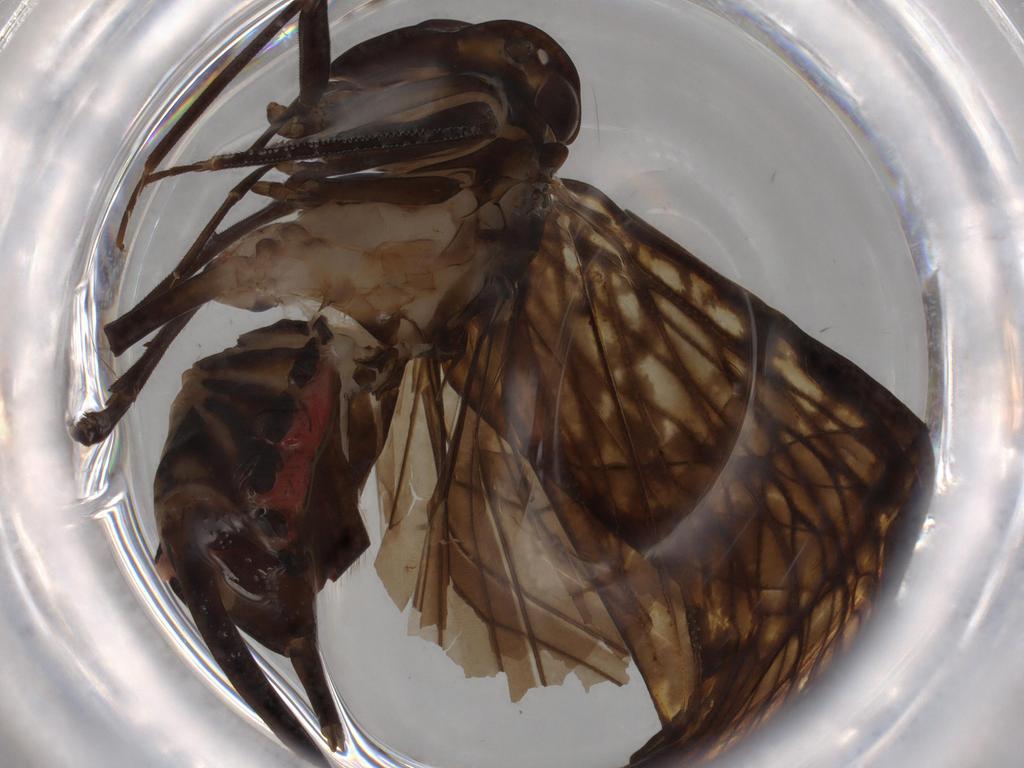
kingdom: Animalia
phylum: Arthropoda
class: Insecta
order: Hemiptera
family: Cixiidae
